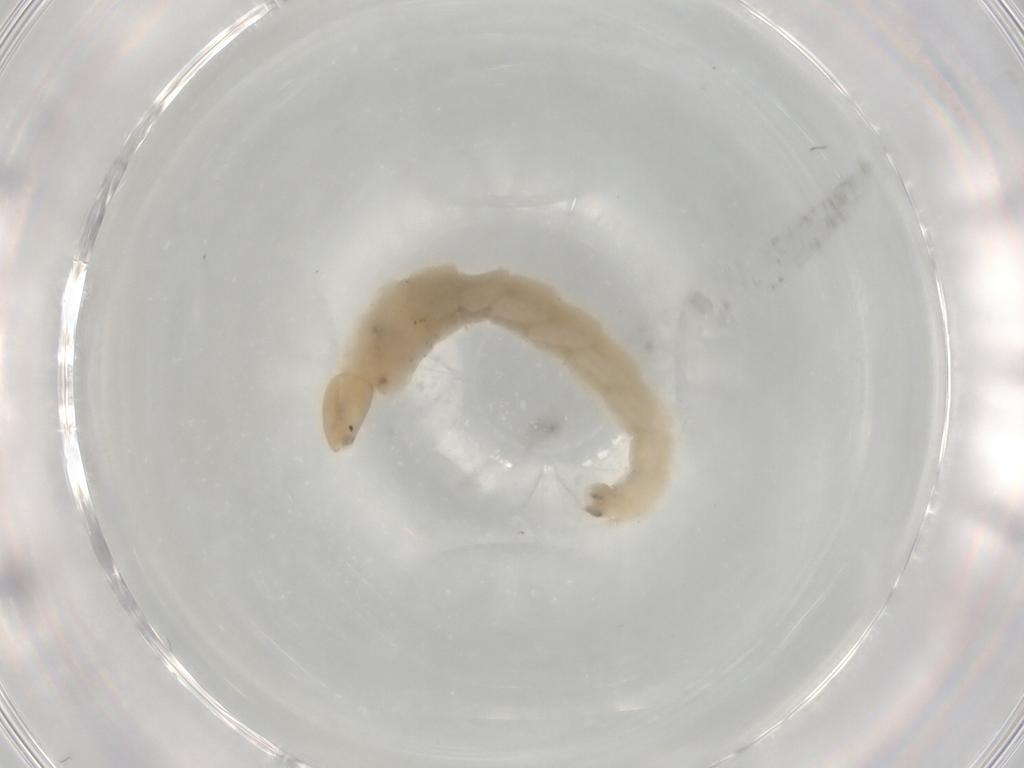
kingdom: Animalia
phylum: Arthropoda
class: Insecta
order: Diptera
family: Chironomidae
